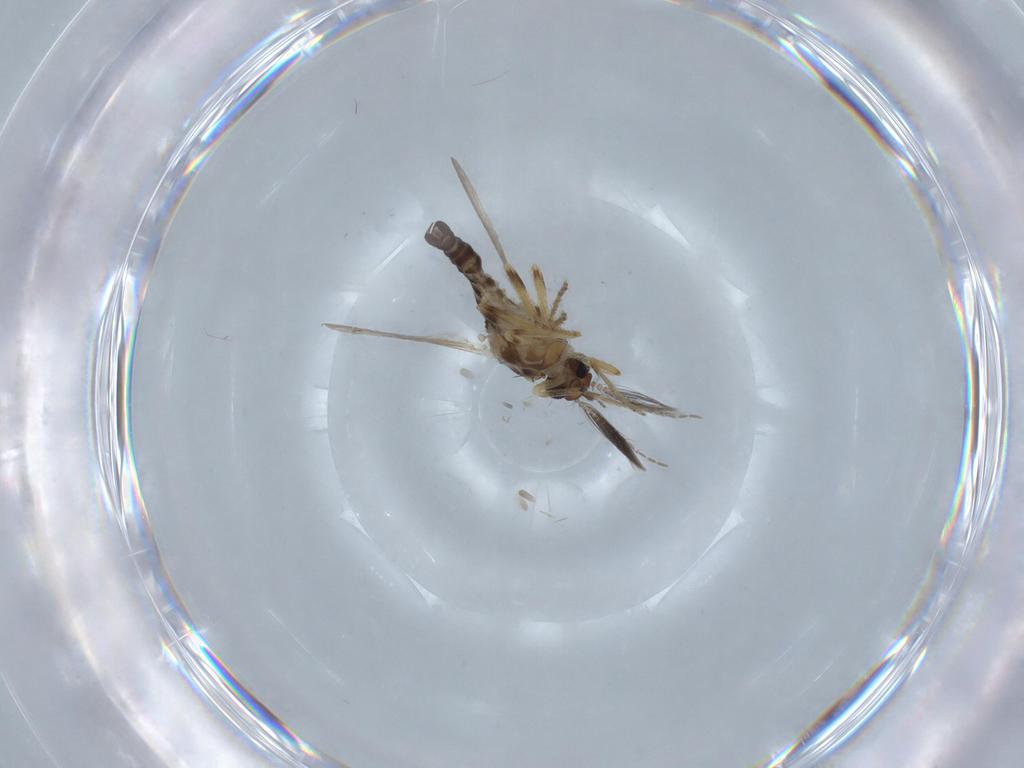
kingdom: Animalia
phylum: Arthropoda
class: Insecta
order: Diptera
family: Ceratopogonidae
